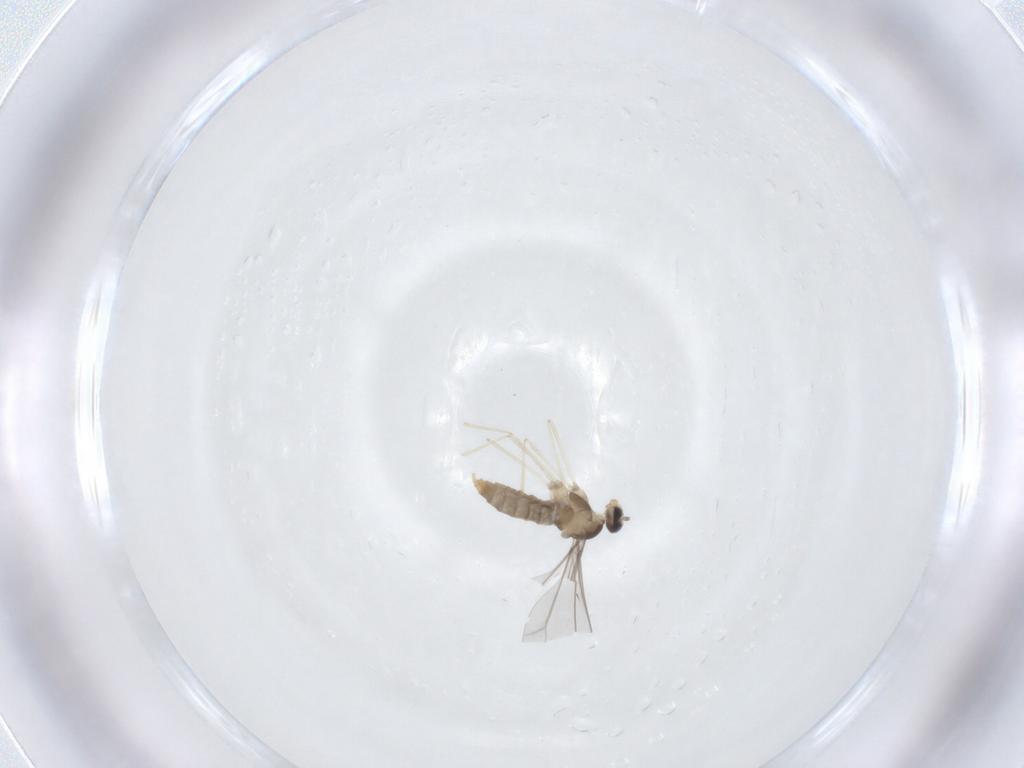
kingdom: Animalia
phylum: Arthropoda
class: Insecta
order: Diptera
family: Cecidomyiidae
